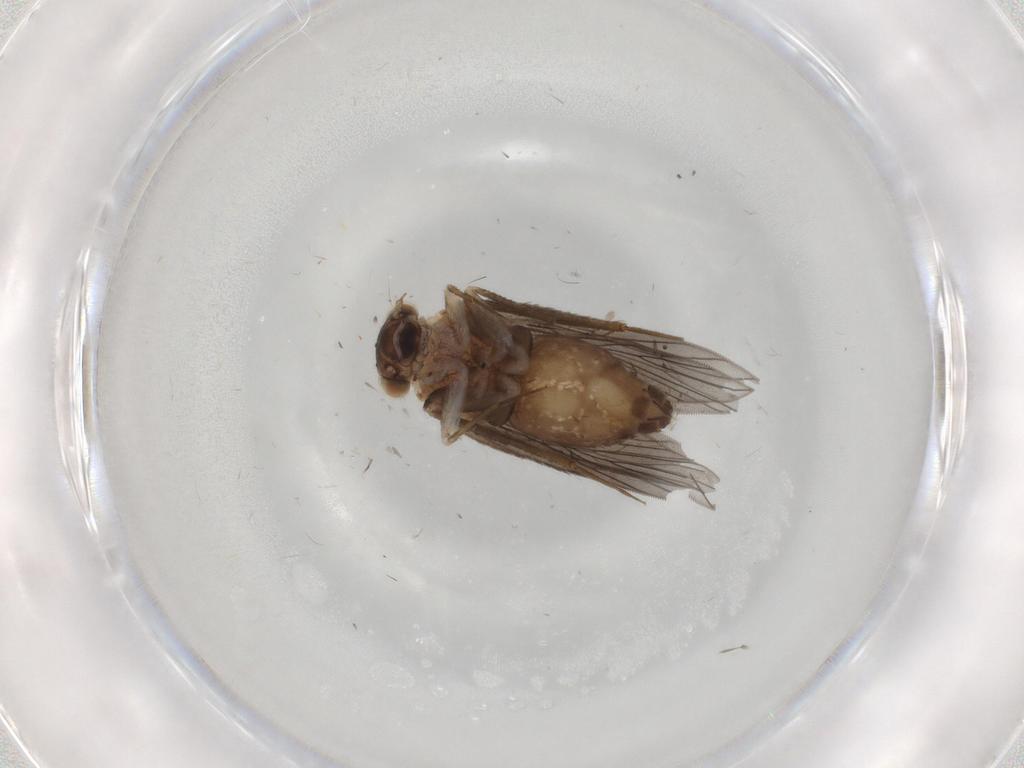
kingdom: Animalia
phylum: Arthropoda
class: Insecta
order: Psocodea
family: Lepidopsocidae
